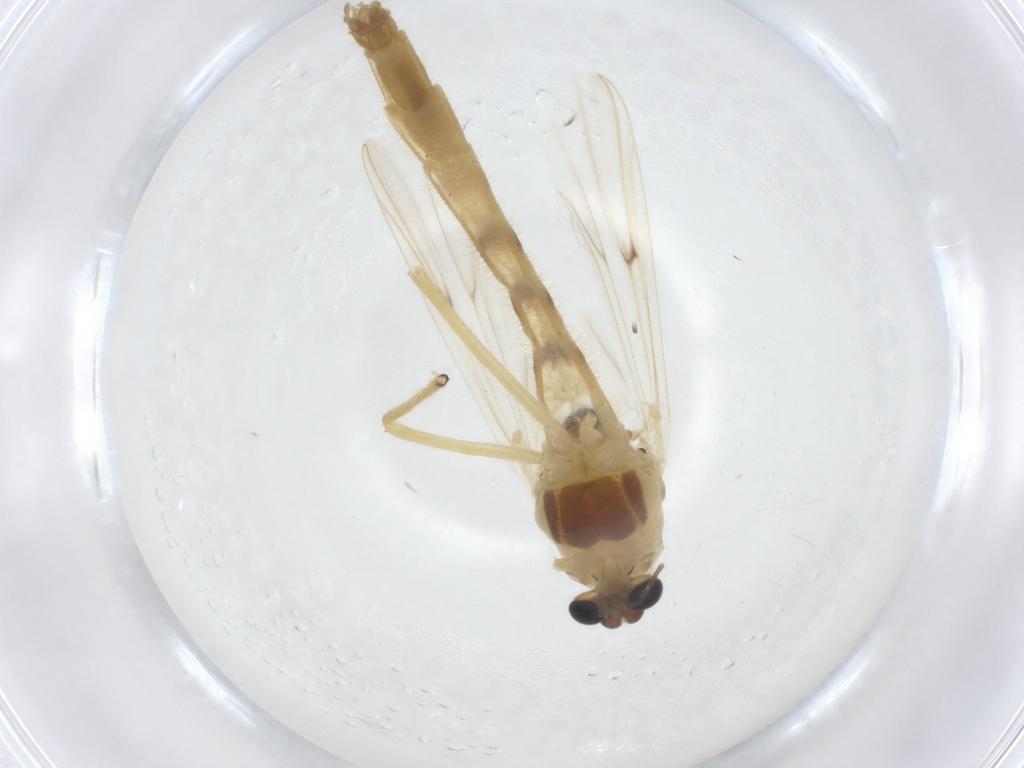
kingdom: Animalia
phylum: Arthropoda
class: Insecta
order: Diptera
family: Chironomidae
